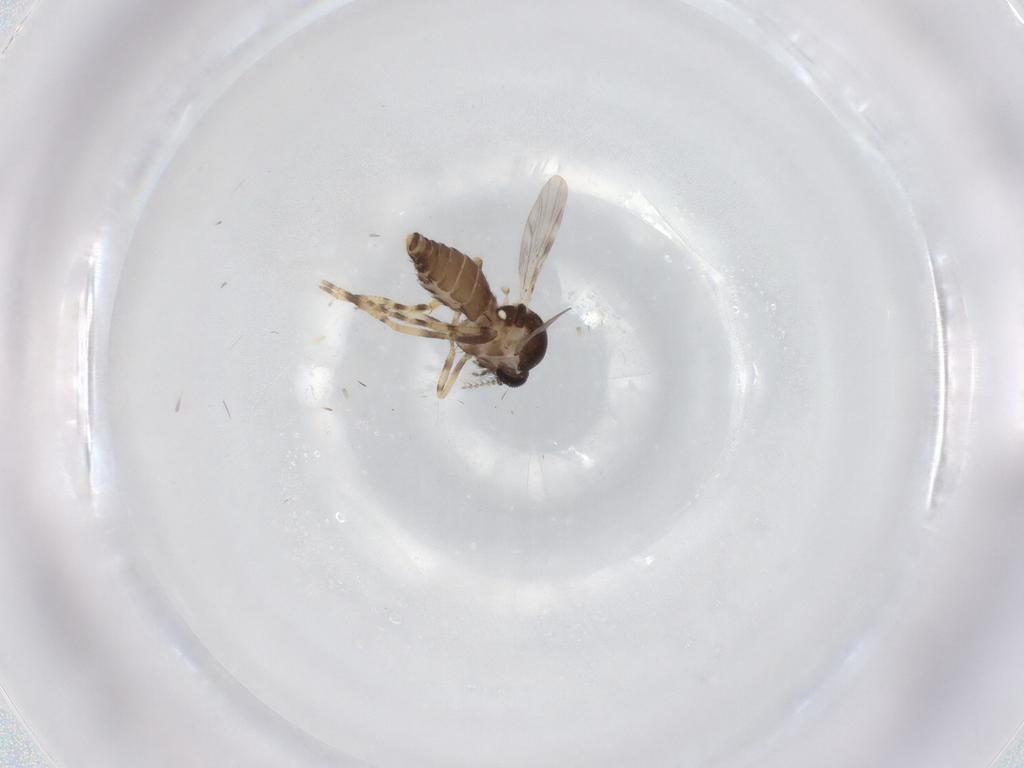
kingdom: Animalia
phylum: Arthropoda
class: Insecta
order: Diptera
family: Ceratopogonidae
